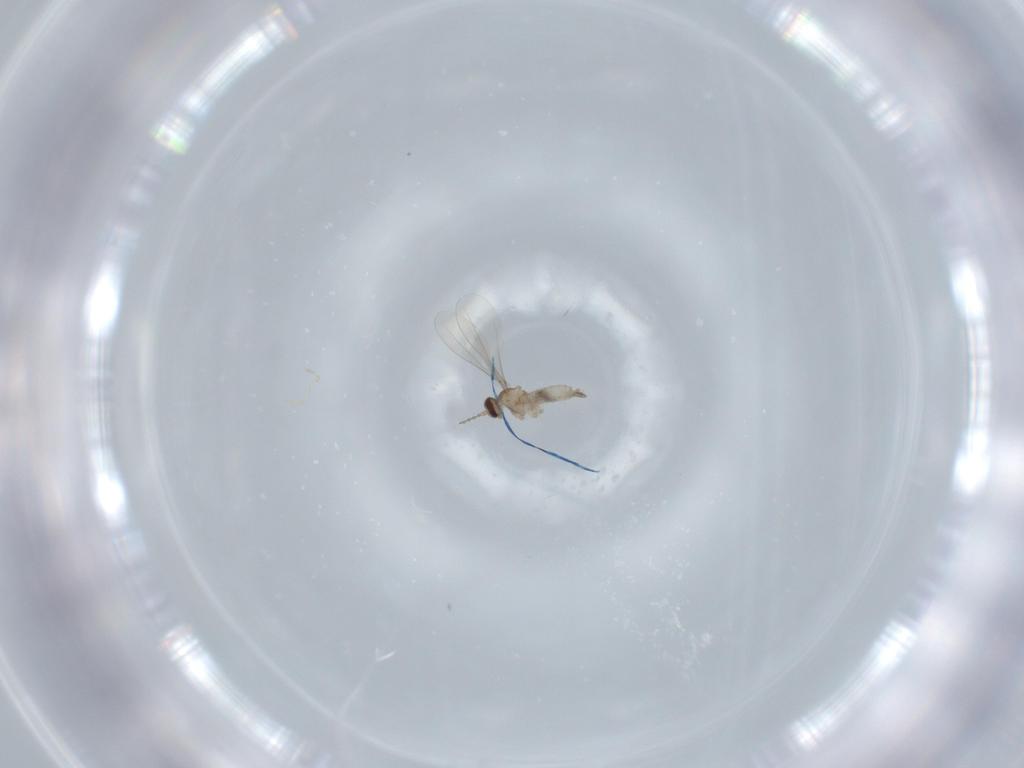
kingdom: Animalia
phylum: Arthropoda
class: Insecta
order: Diptera
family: Cecidomyiidae
